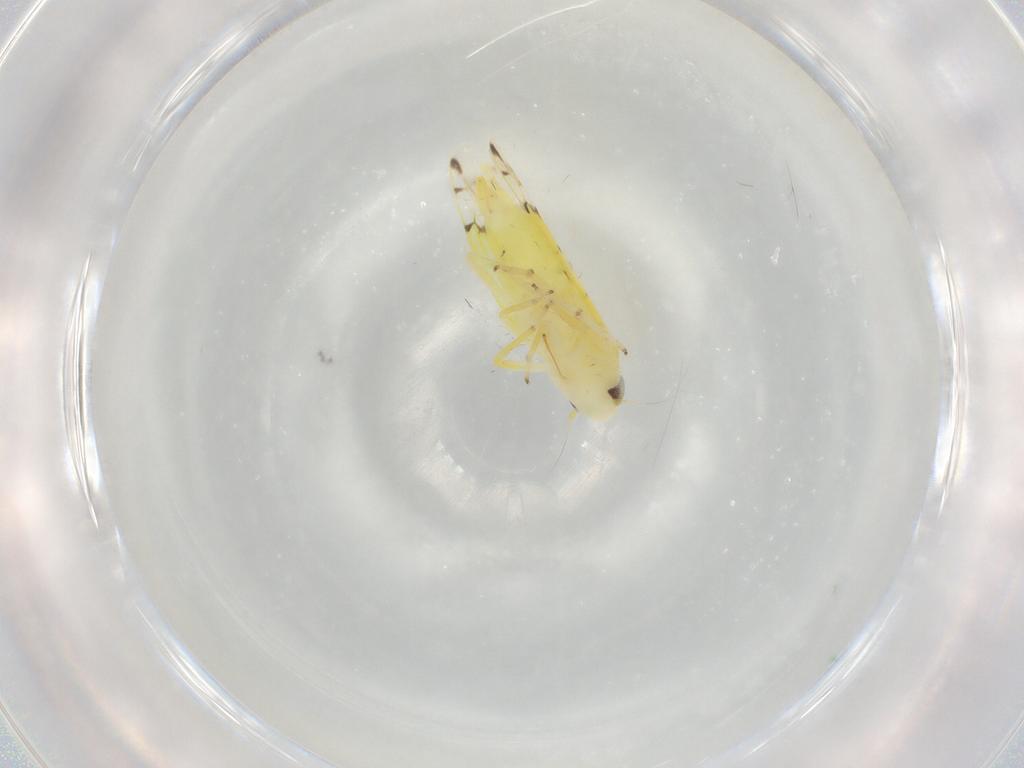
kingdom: Animalia
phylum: Arthropoda
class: Insecta
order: Hemiptera
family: Cicadellidae
